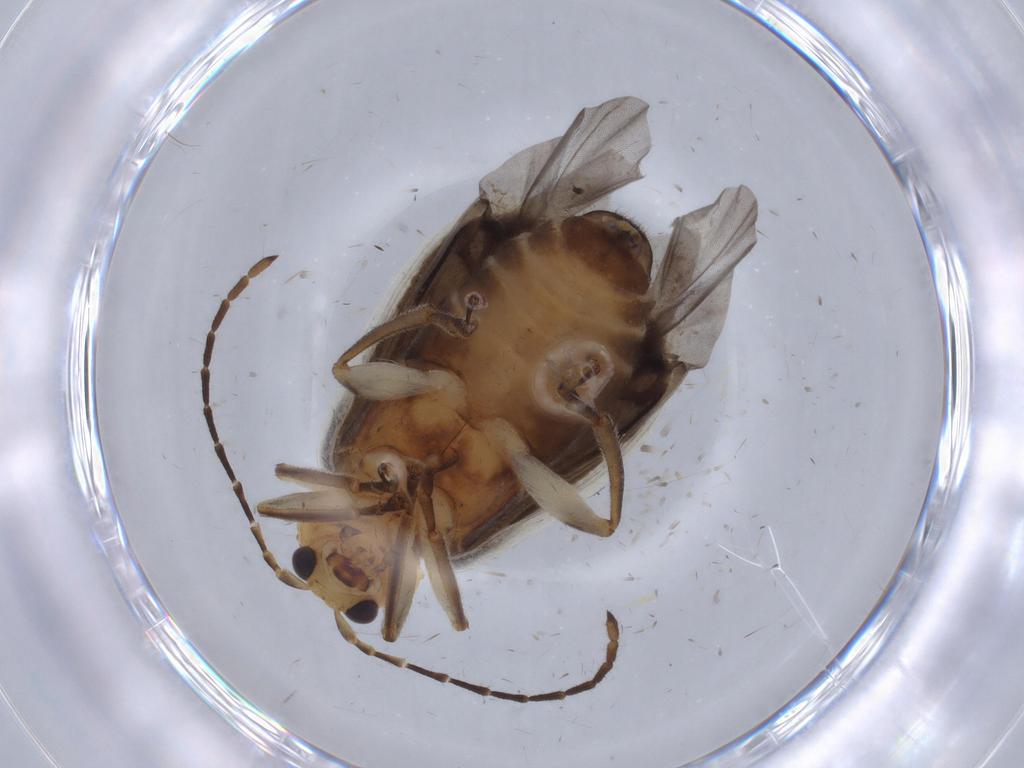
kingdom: Animalia
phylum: Arthropoda
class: Insecta
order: Coleoptera
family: Chrysomelidae
